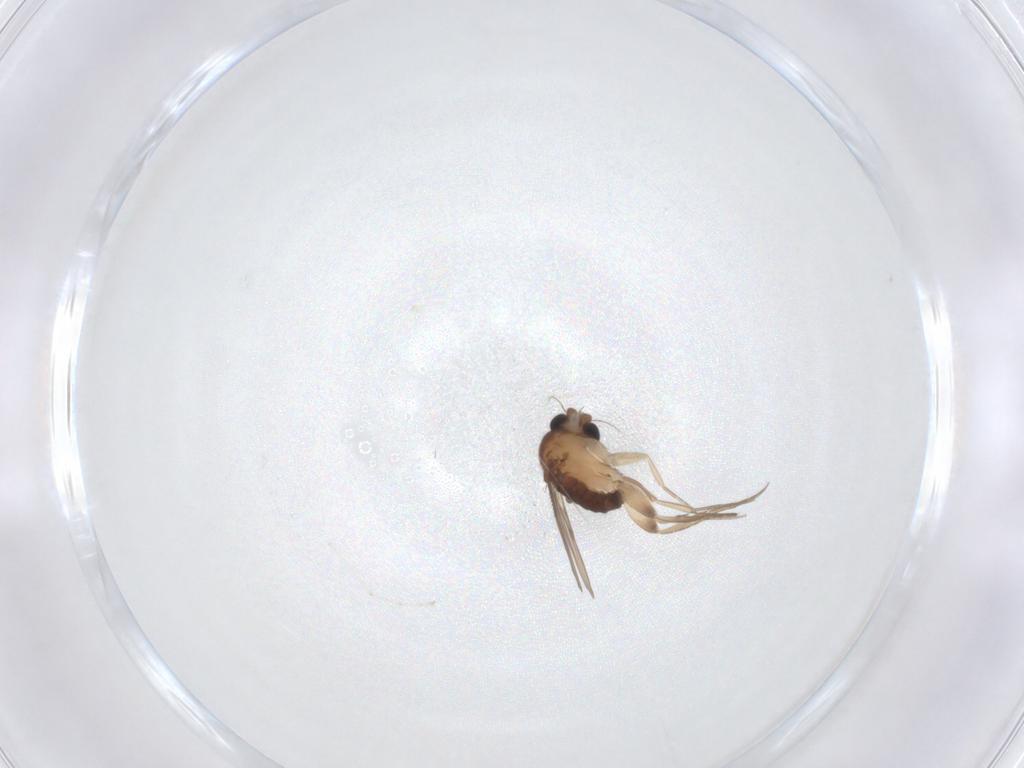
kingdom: Animalia
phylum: Arthropoda
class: Insecta
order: Diptera
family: Phoridae
